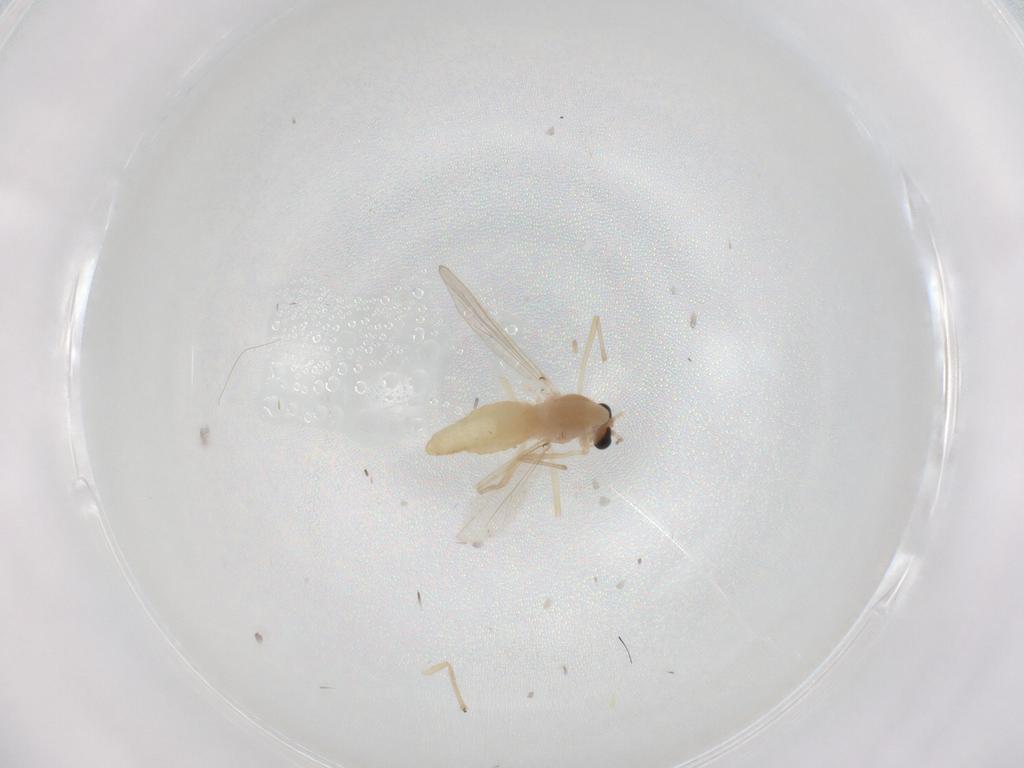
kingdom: Animalia
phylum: Arthropoda
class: Insecta
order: Diptera
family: Chironomidae
